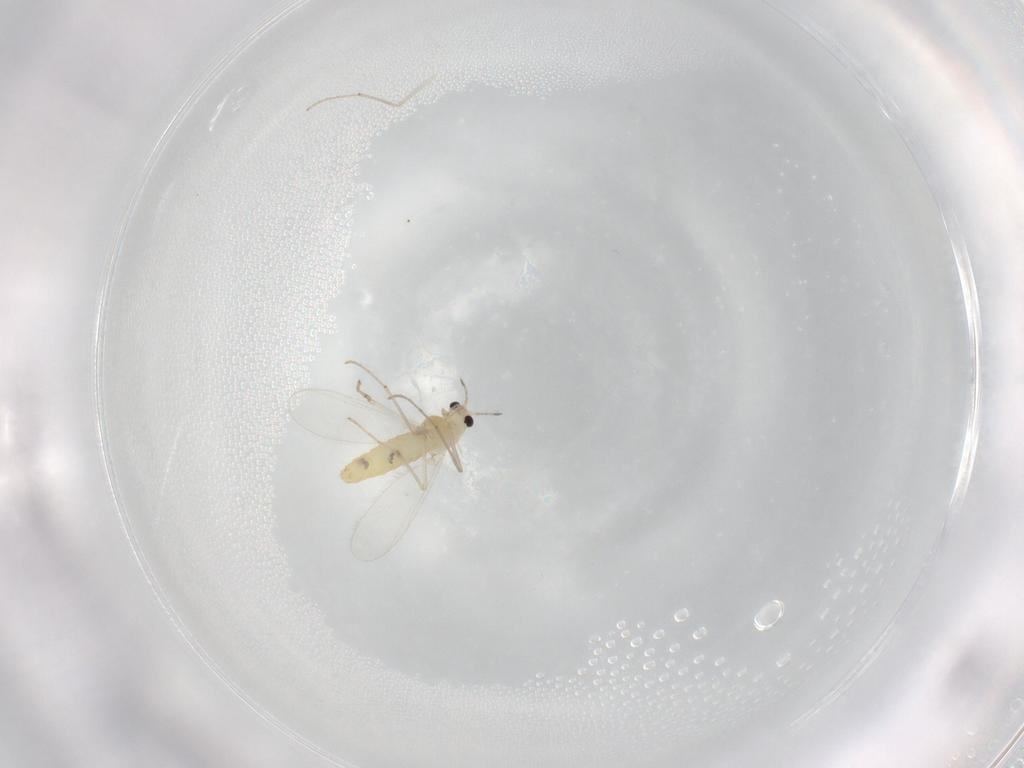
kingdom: Animalia
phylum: Arthropoda
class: Insecta
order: Diptera
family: Chironomidae
